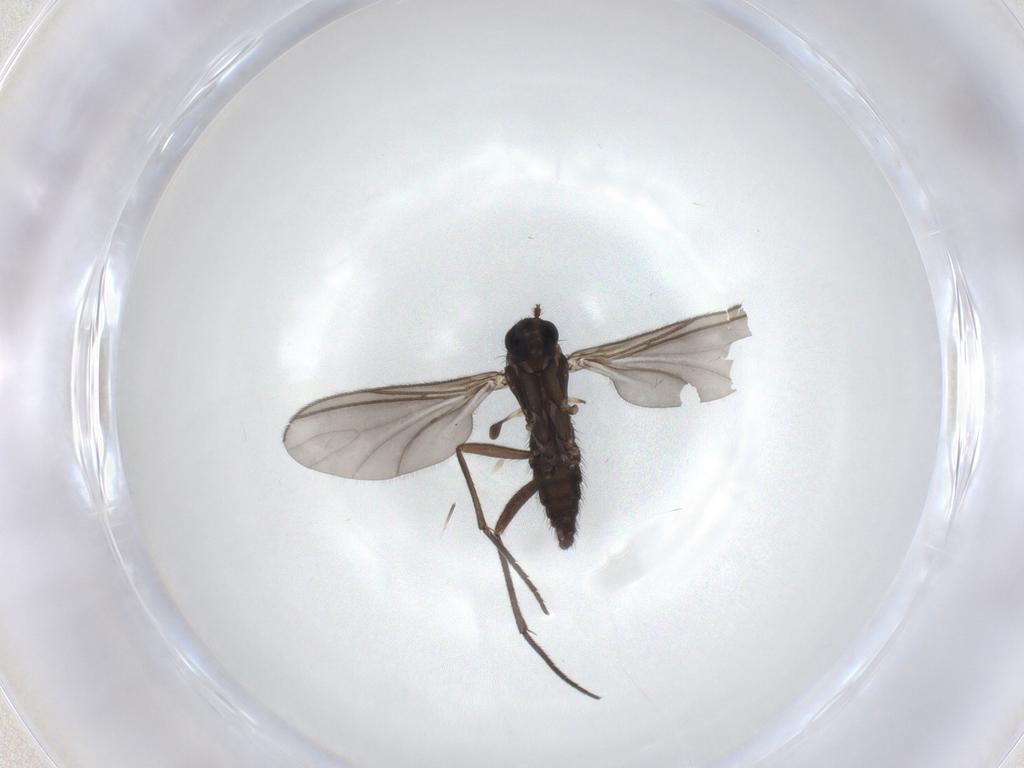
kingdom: Animalia
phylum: Arthropoda
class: Insecta
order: Diptera
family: Sciaridae
